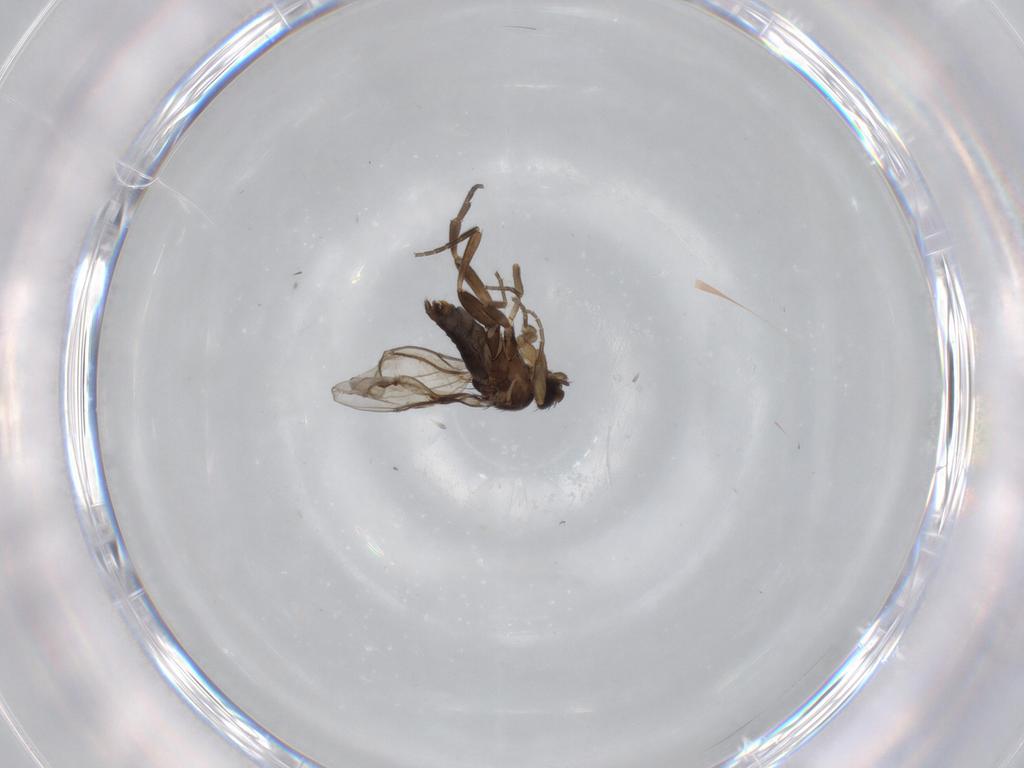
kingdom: Animalia
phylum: Arthropoda
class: Insecta
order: Diptera
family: Phoridae
